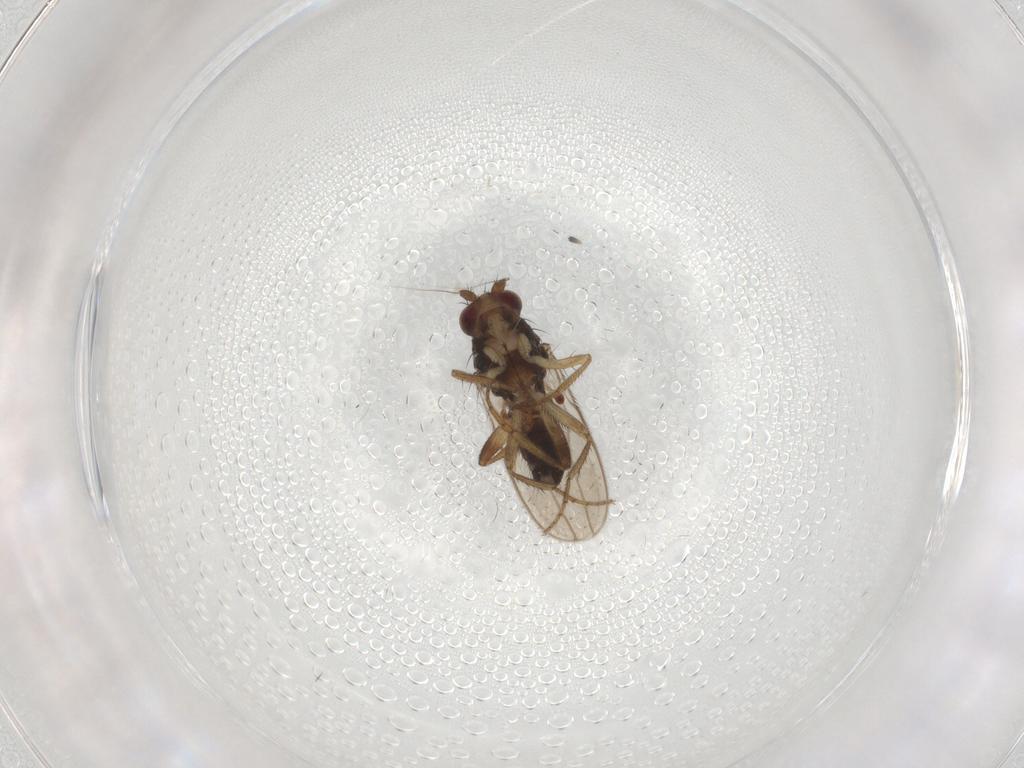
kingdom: Animalia
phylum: Arthropoda
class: Insecta
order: Diptera
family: Sphaeroceridae
